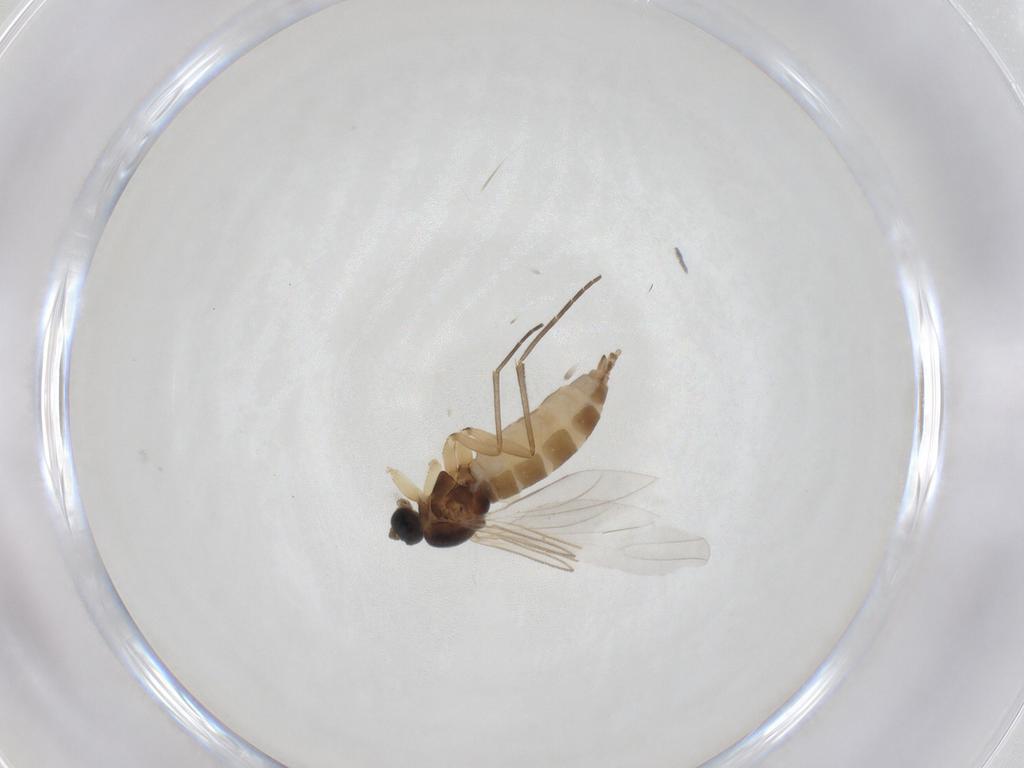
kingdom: Animalia
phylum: Arthropoda
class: Insecta
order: Diptera
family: Sciaridae
